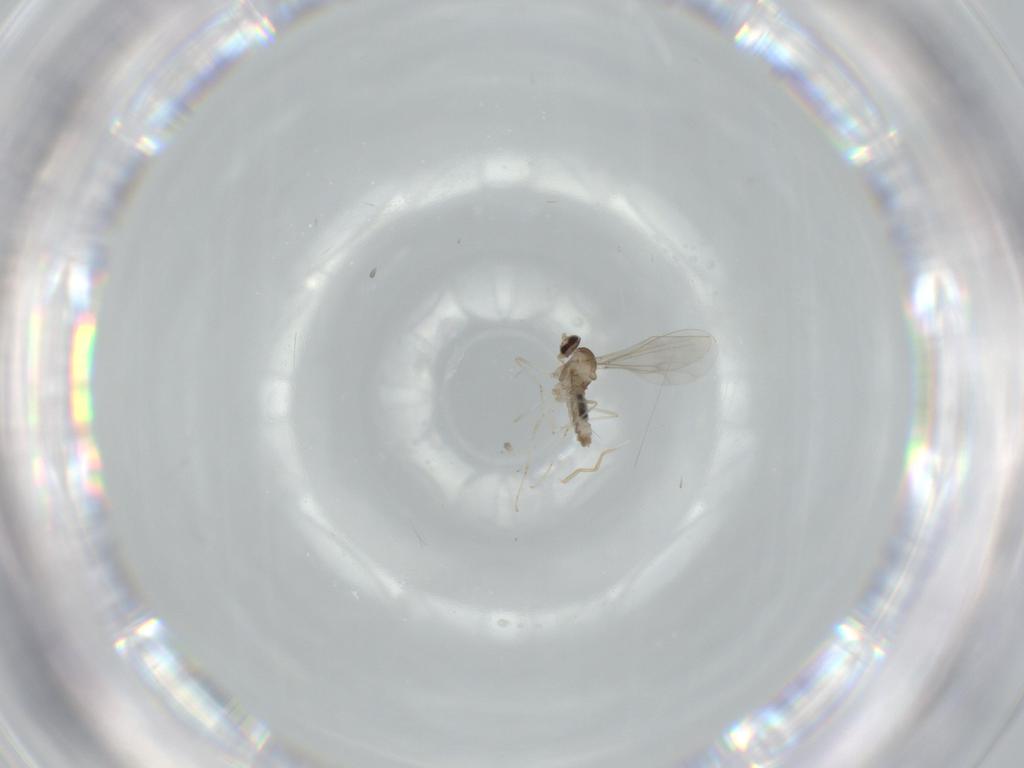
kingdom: Animalia
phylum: Arthropoda
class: Insecta
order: Diptera
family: Cecidomyiidae
